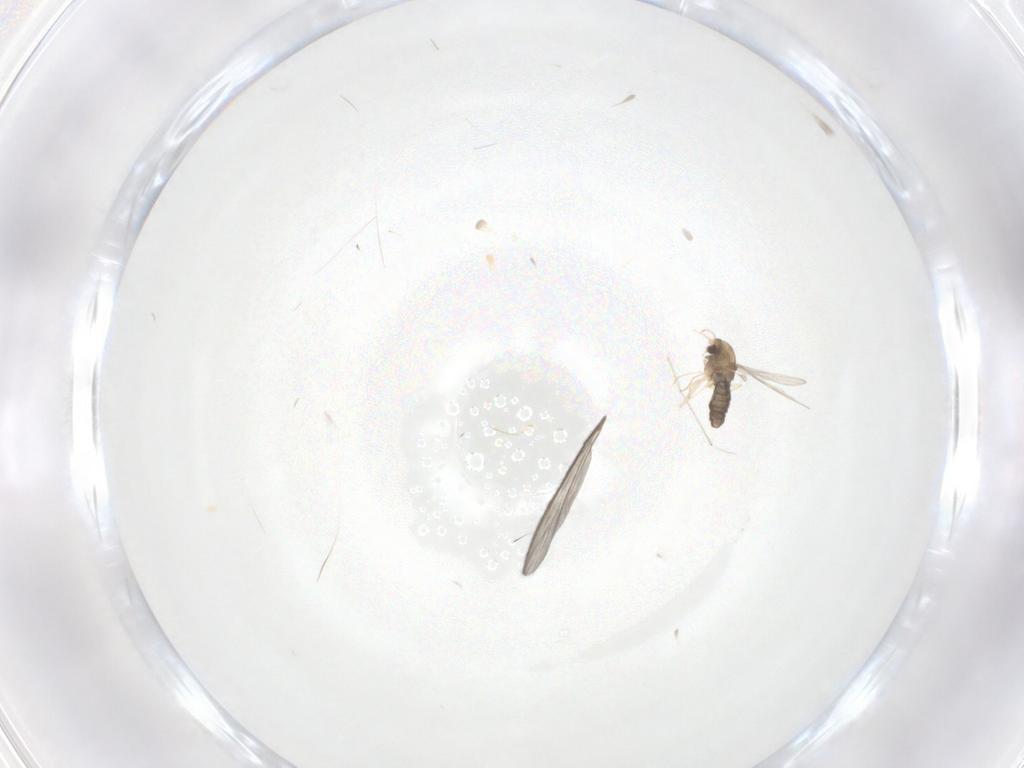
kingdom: Animalia
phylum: Arthropoda
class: Insecta
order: Diptera
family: Chironomidae
